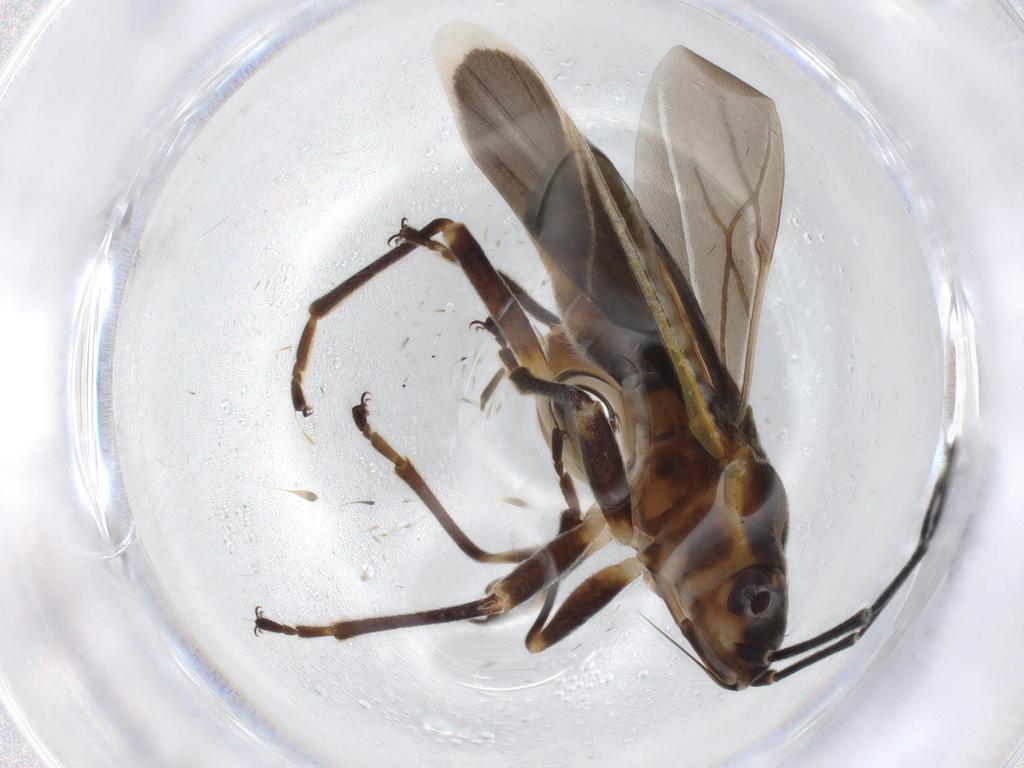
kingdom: Animalia
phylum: Arthropoda
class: Insecta
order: Hemiptera
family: Lygaeidae
